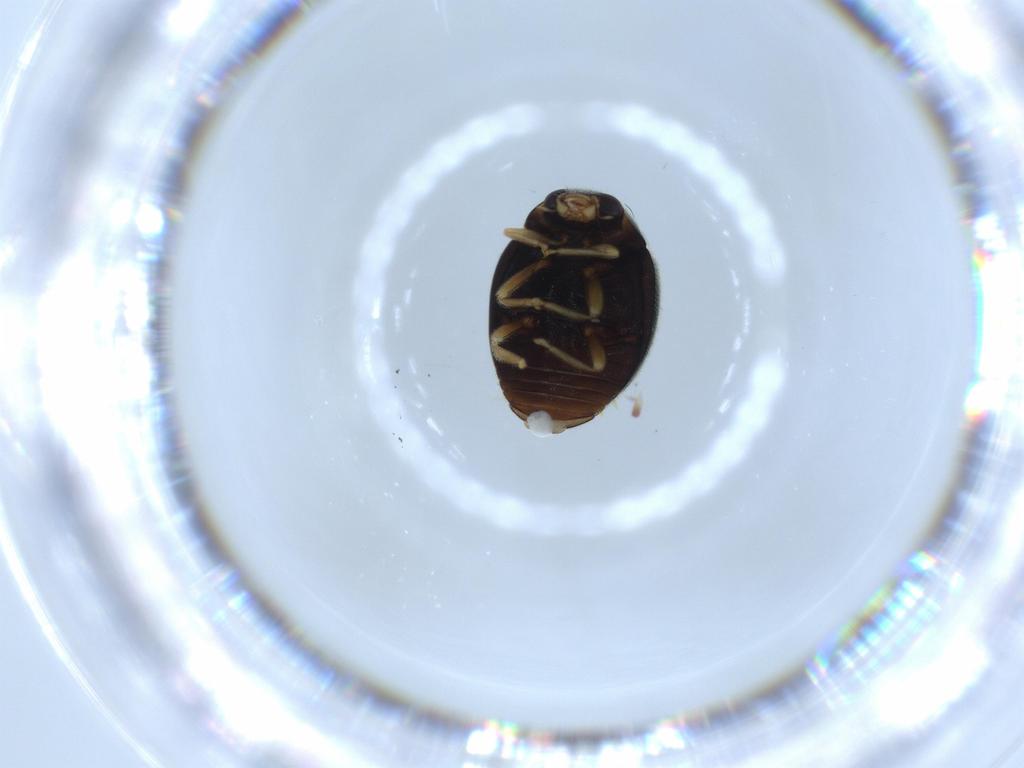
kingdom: Animalia
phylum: Arthropoda
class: Insecta
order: Coleoptera
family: Coccinellidae
